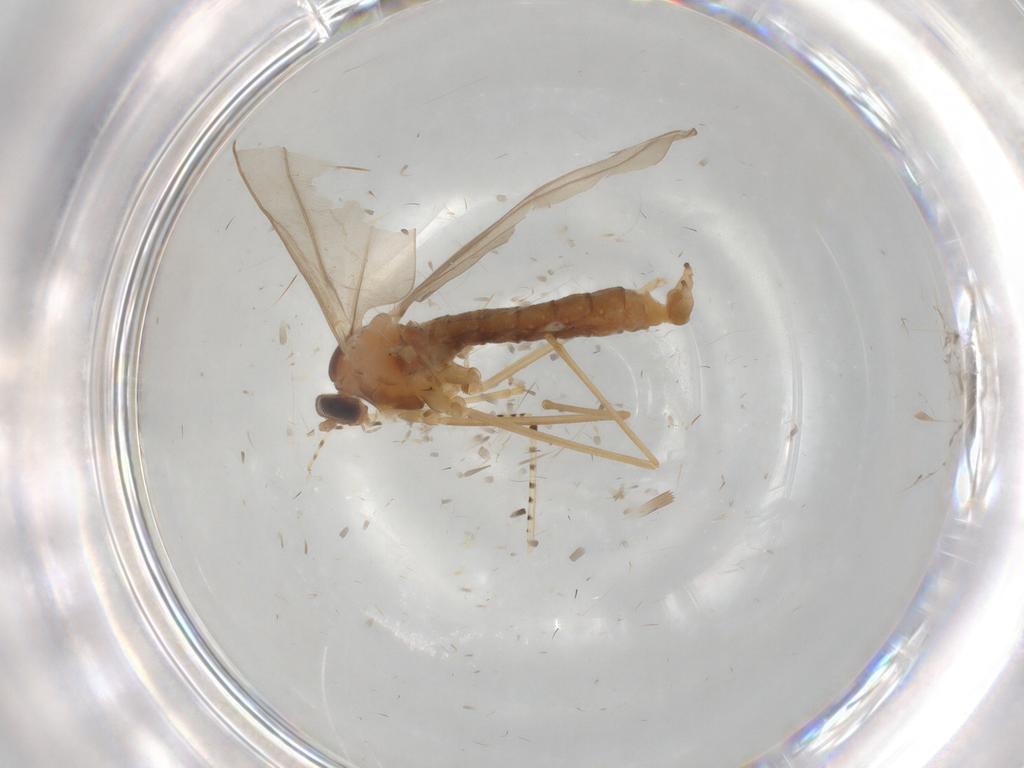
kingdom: Animalia
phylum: Arthropoda
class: Insecta
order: Diptera
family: Cecidomyiidae
